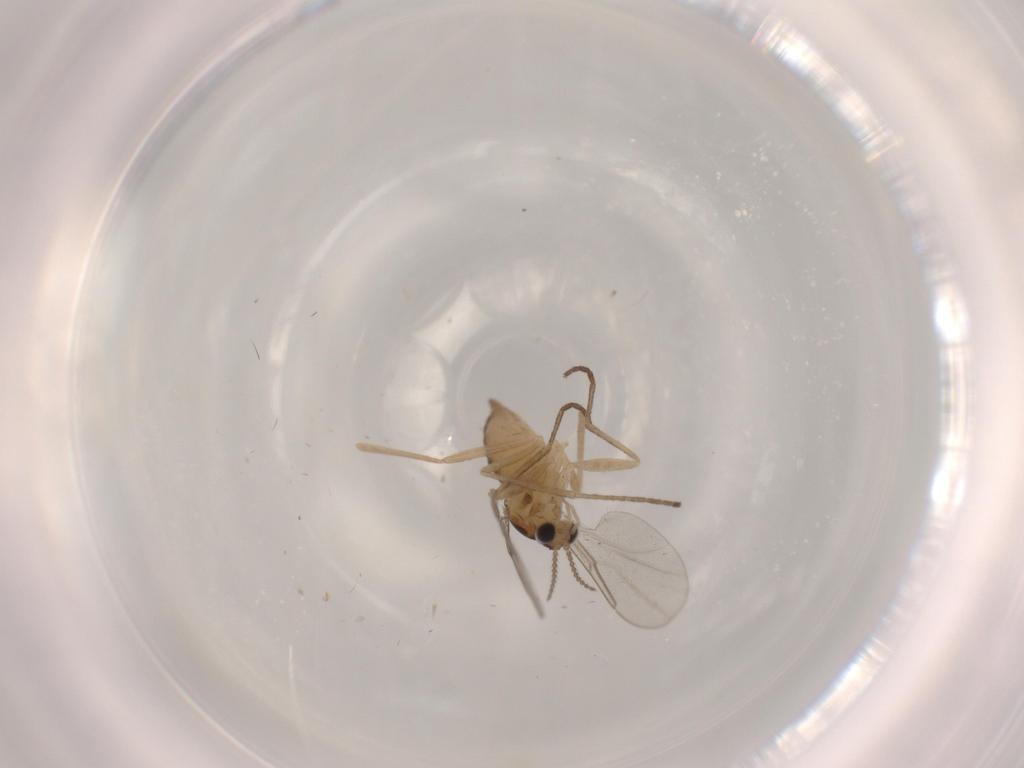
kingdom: Animalia
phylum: Arthropoda
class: Insecta
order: Diptera
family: Cecidomyiidae
